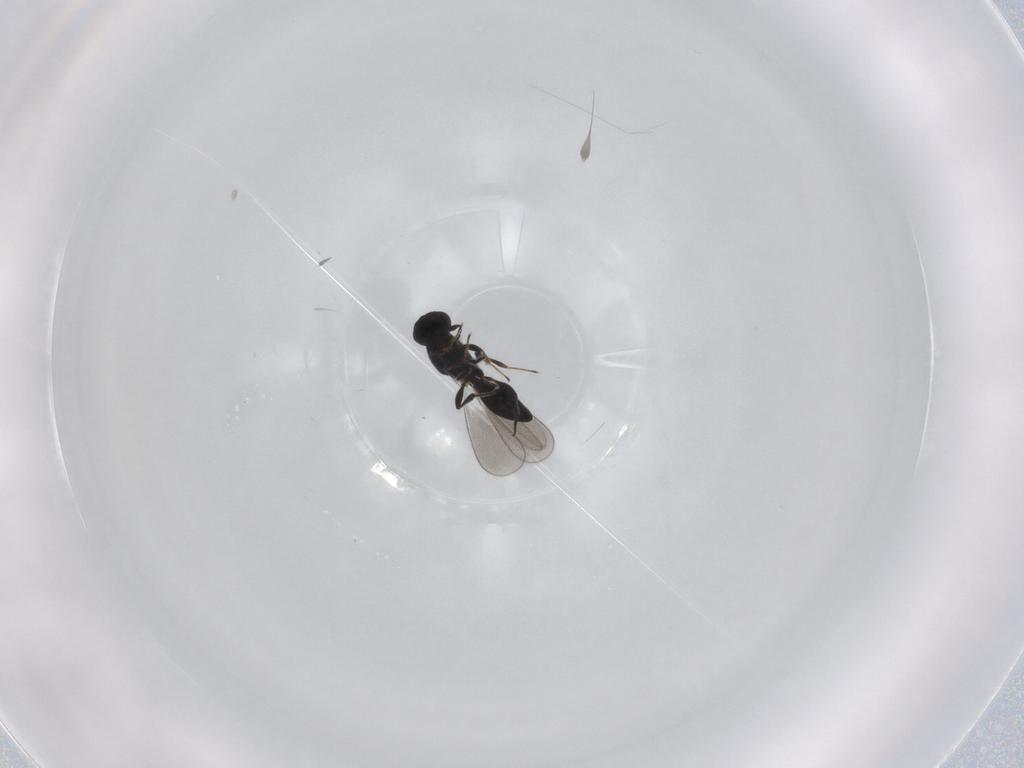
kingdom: Animalia
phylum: Arthropoda
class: Insecta
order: Hymenoptera
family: Platygastridae
